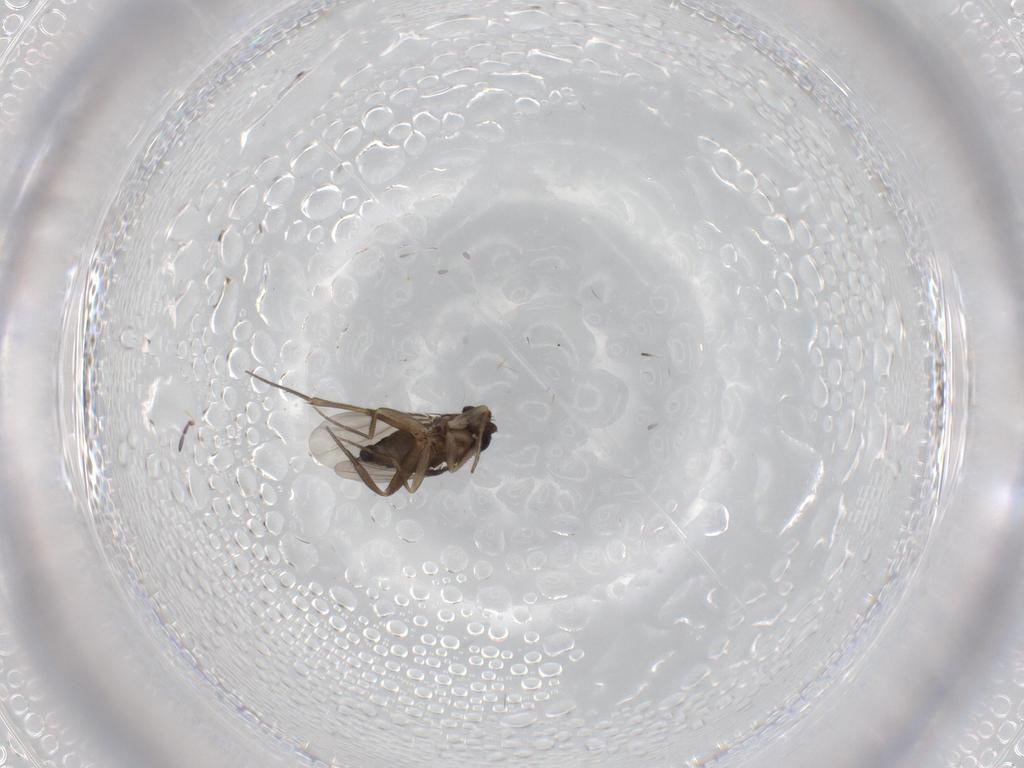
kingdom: Animalia
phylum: Arthropoda
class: Insecta
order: Diptera
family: Phoridae
